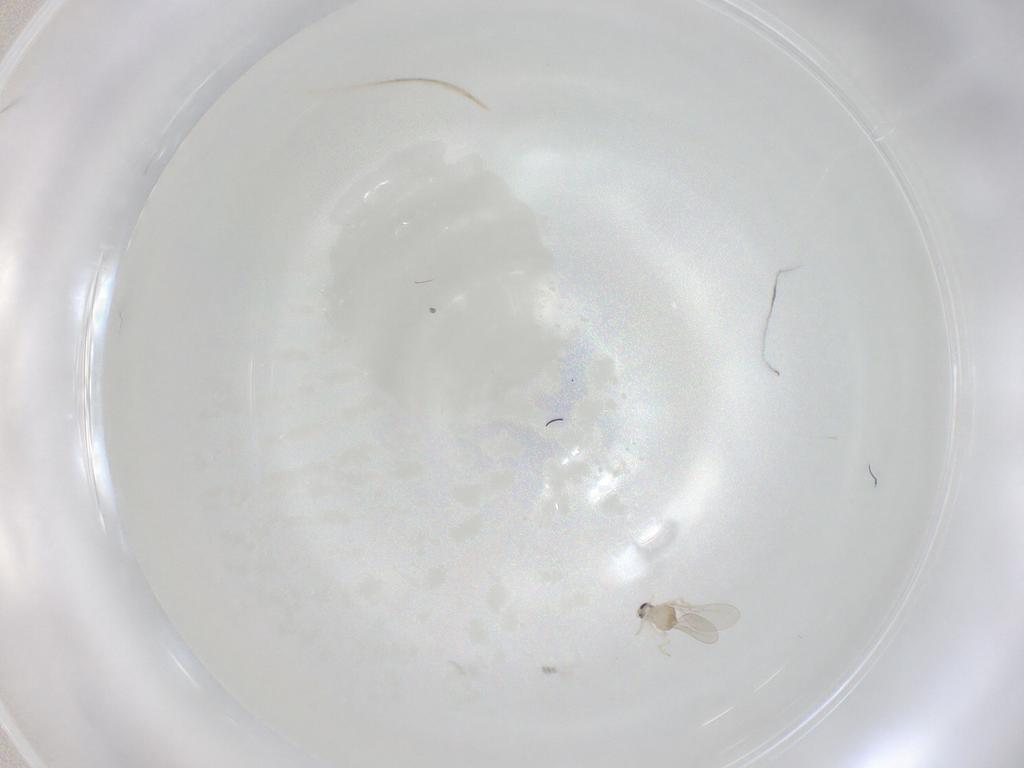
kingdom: Animalia
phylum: Arthropoda
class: Insecta
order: Diptera
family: Cecidomyiidae
